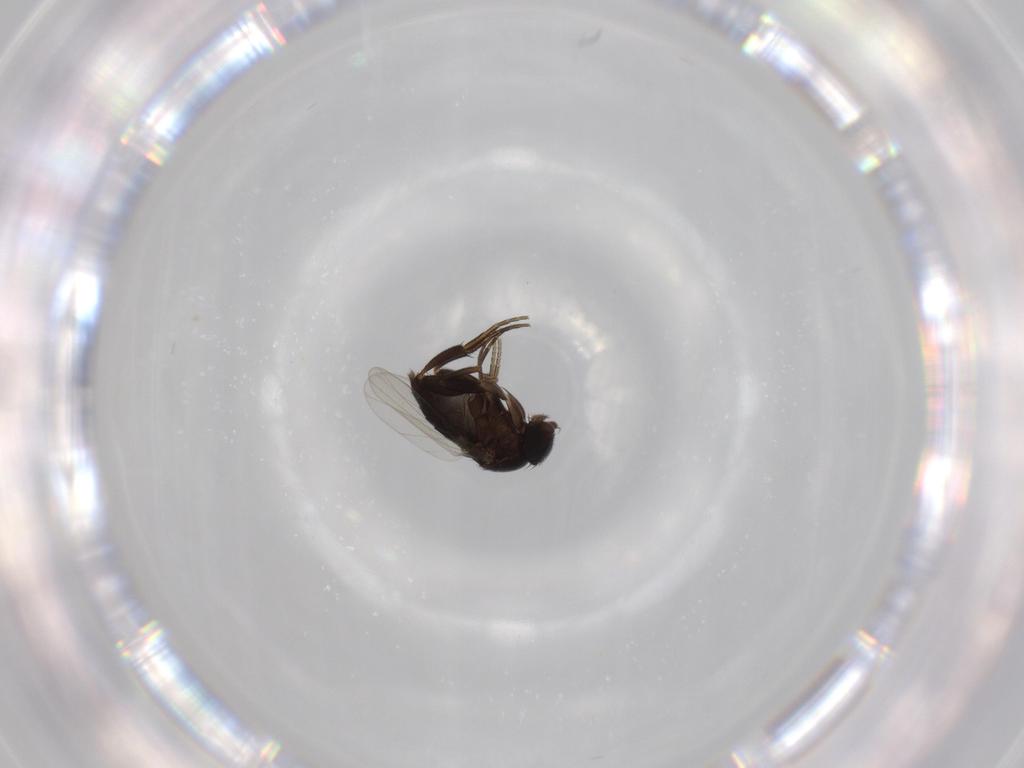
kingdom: Animalia
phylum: Arthropoda
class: Insecta
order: Diptera
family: Phoridae
